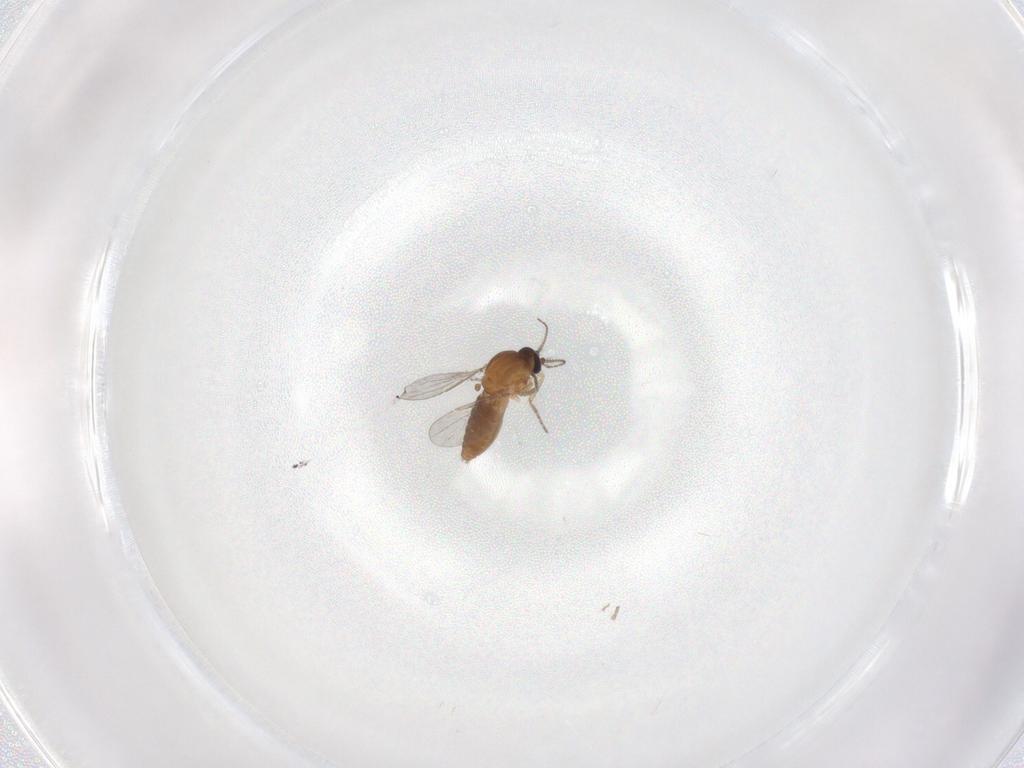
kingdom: Animalia
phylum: Arthropoda
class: Insecta
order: Diptera
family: Ceratopogonidae
